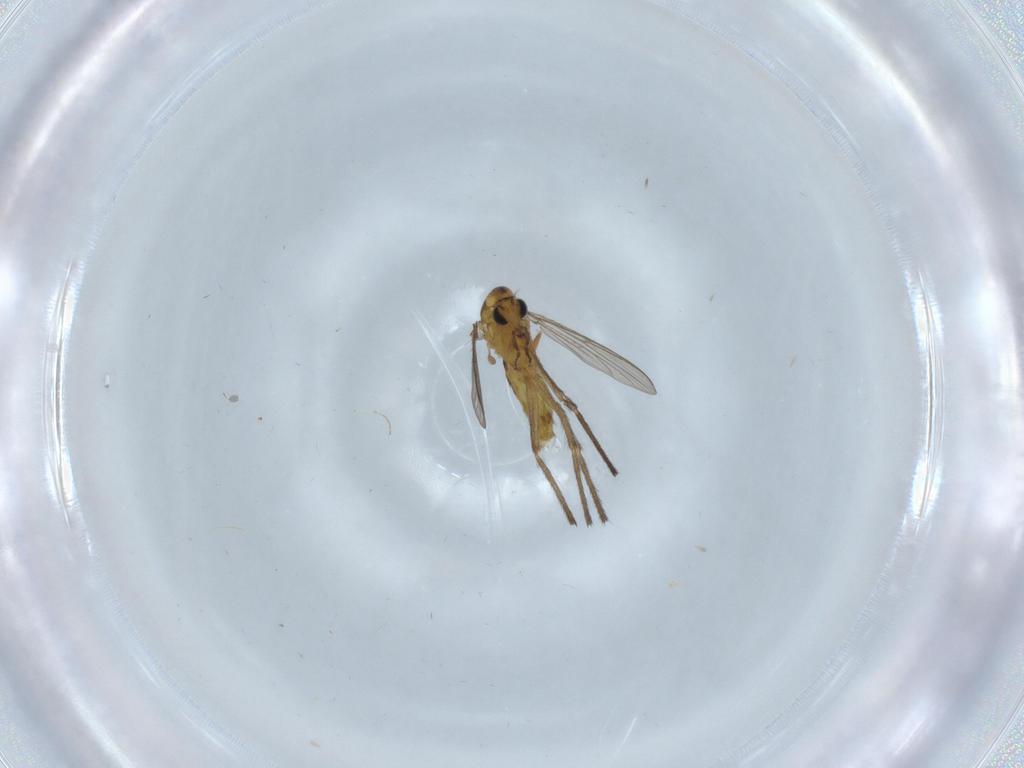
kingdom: Animalia
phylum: Arthropoda
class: Insecta
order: Diptera
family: Chironomidae
